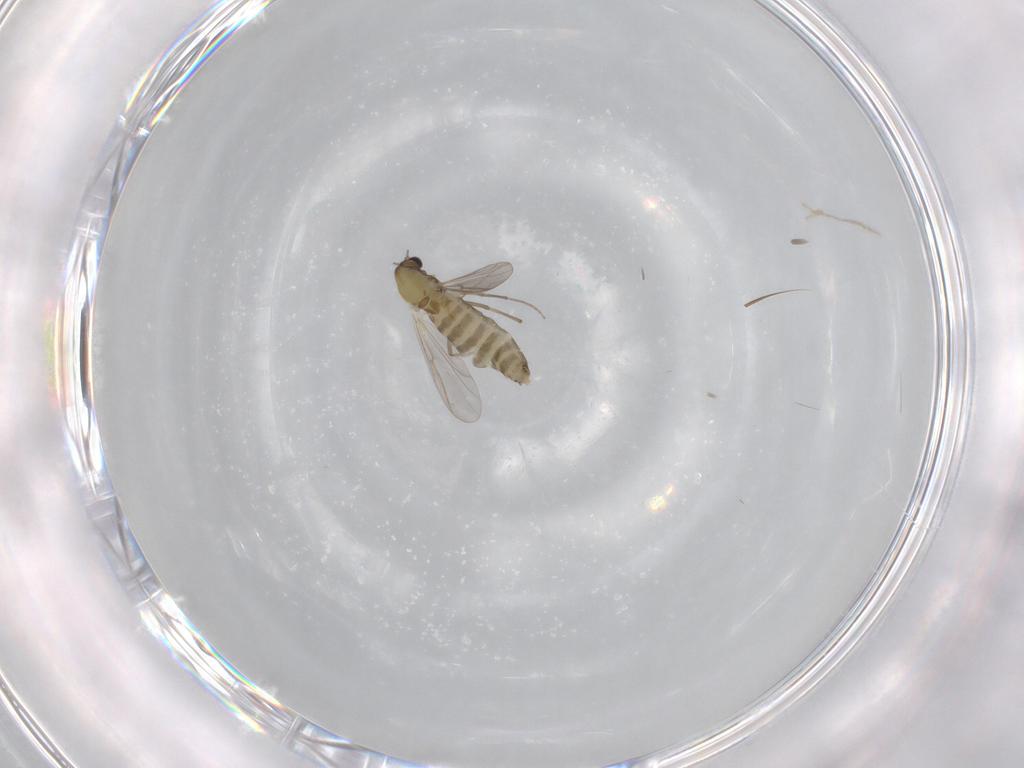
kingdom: Animalia
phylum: Arthropoda
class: Insecta
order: Diptera
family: Chironomidae
